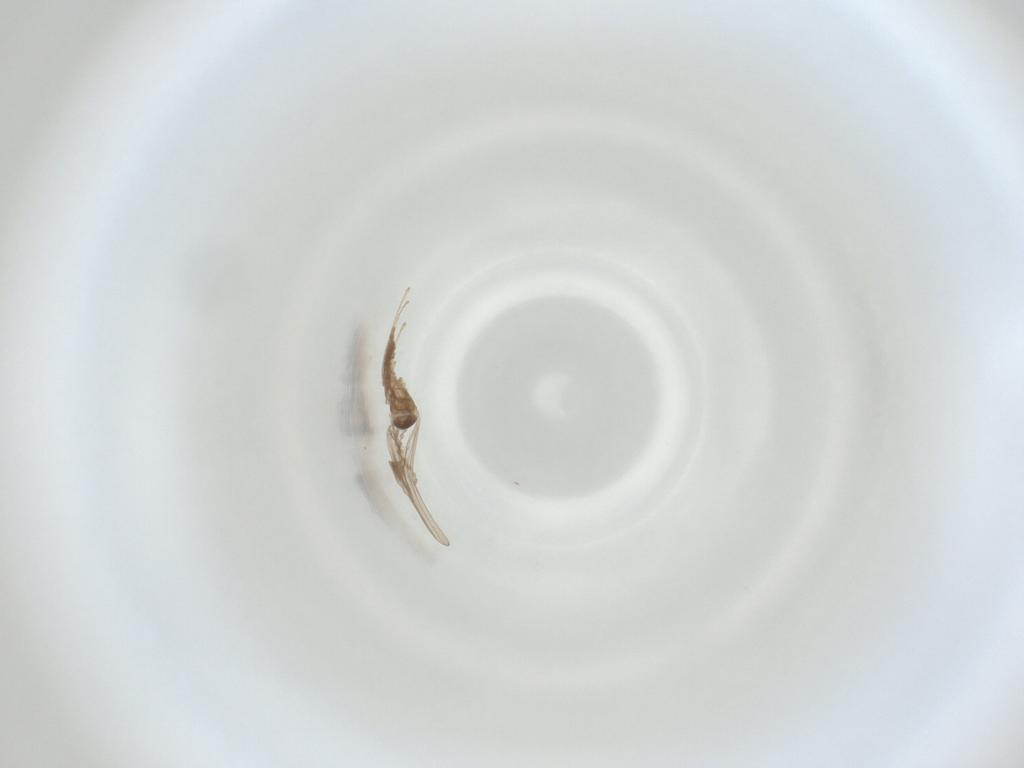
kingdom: Animalia
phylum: Arthropoda
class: Insecta
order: Diptera
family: Cecidomyiidae
